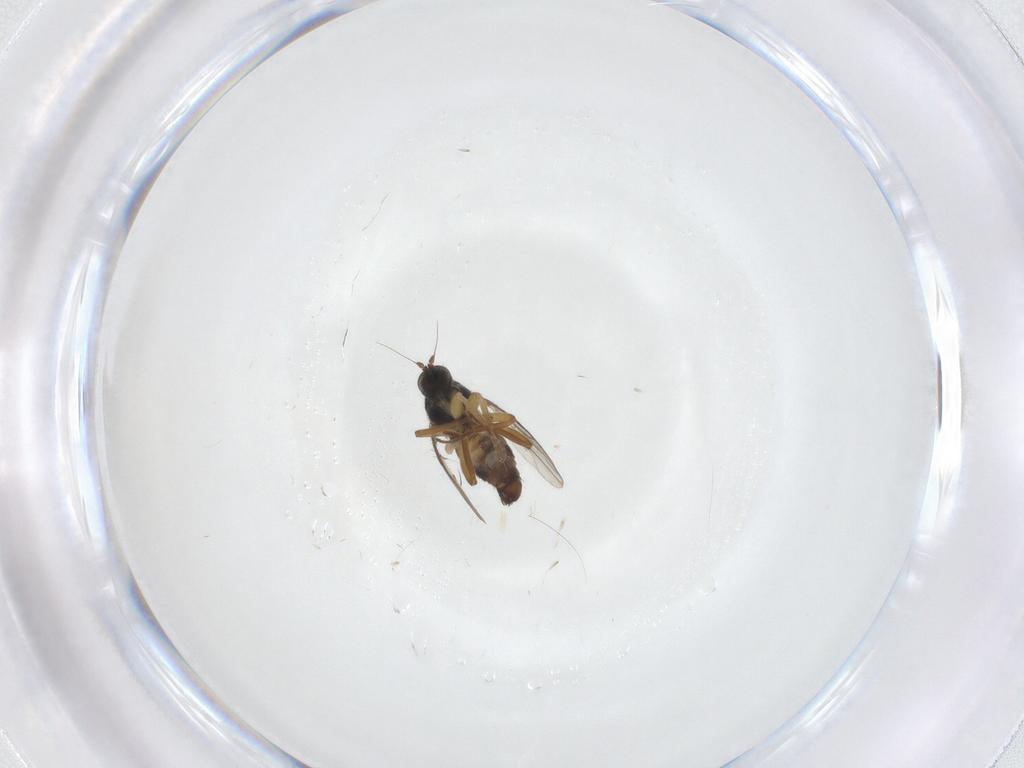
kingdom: Animalia
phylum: Arthropoda
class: Insecta
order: Diptera
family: Hybotidae
